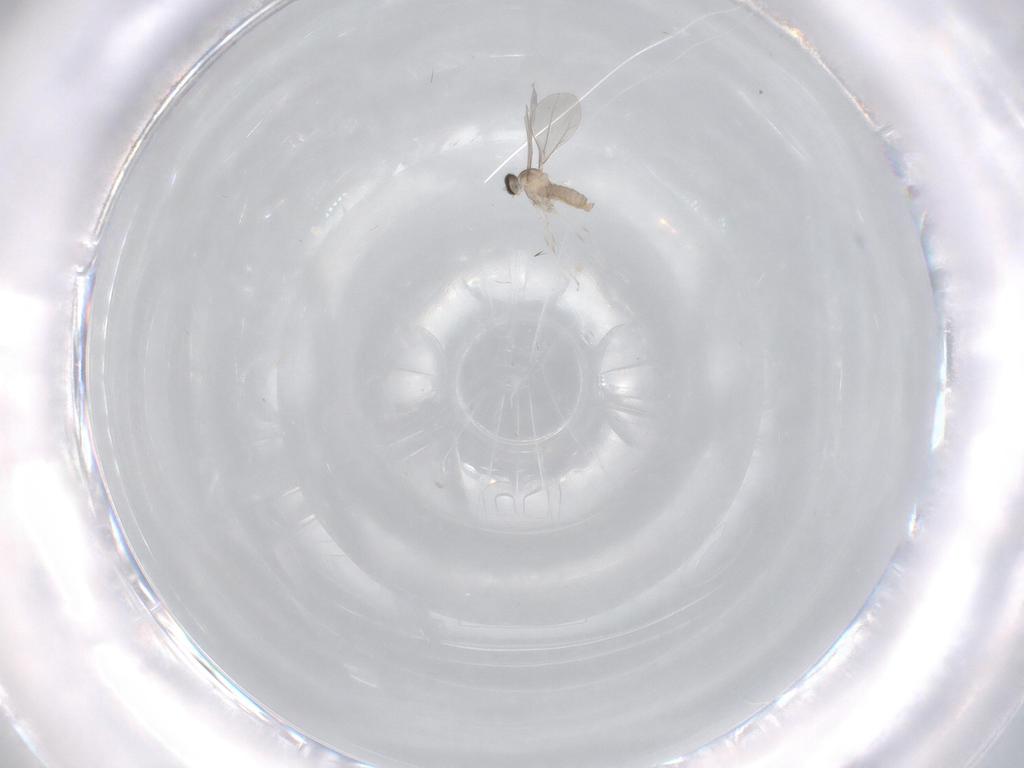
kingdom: Animalia
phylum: Arthropoda
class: Insecta
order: Diptera
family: Cecidomyiidae
